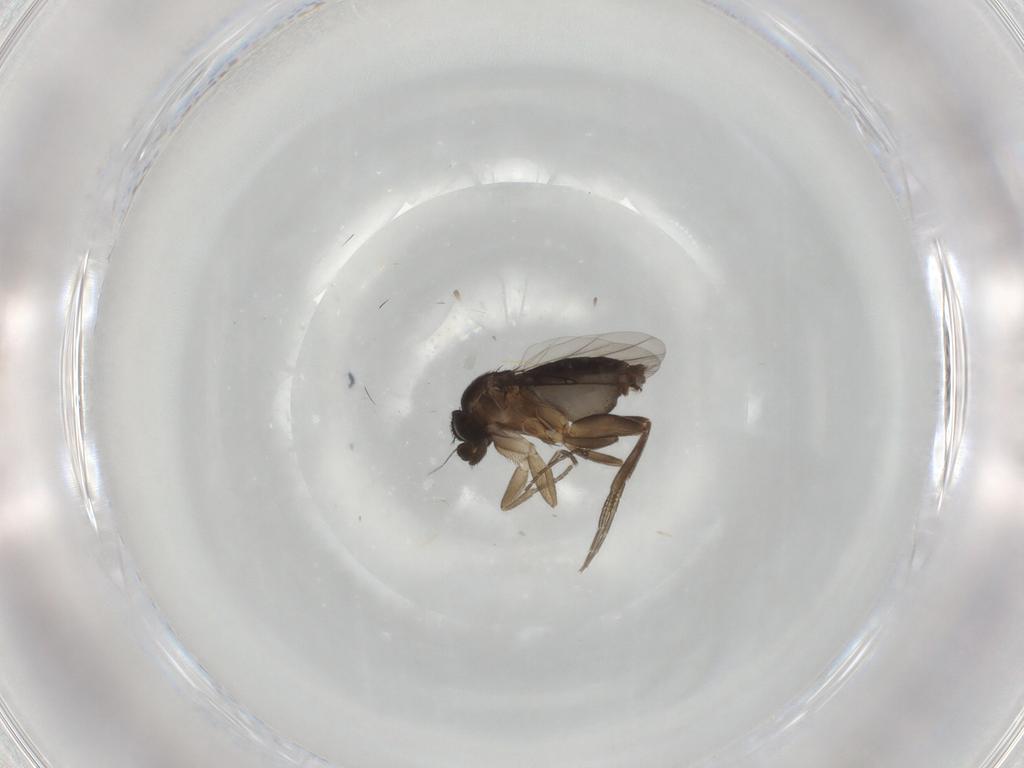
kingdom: Animalia
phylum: Arthropoda
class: Insecta
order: Diptera
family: Phoridae
